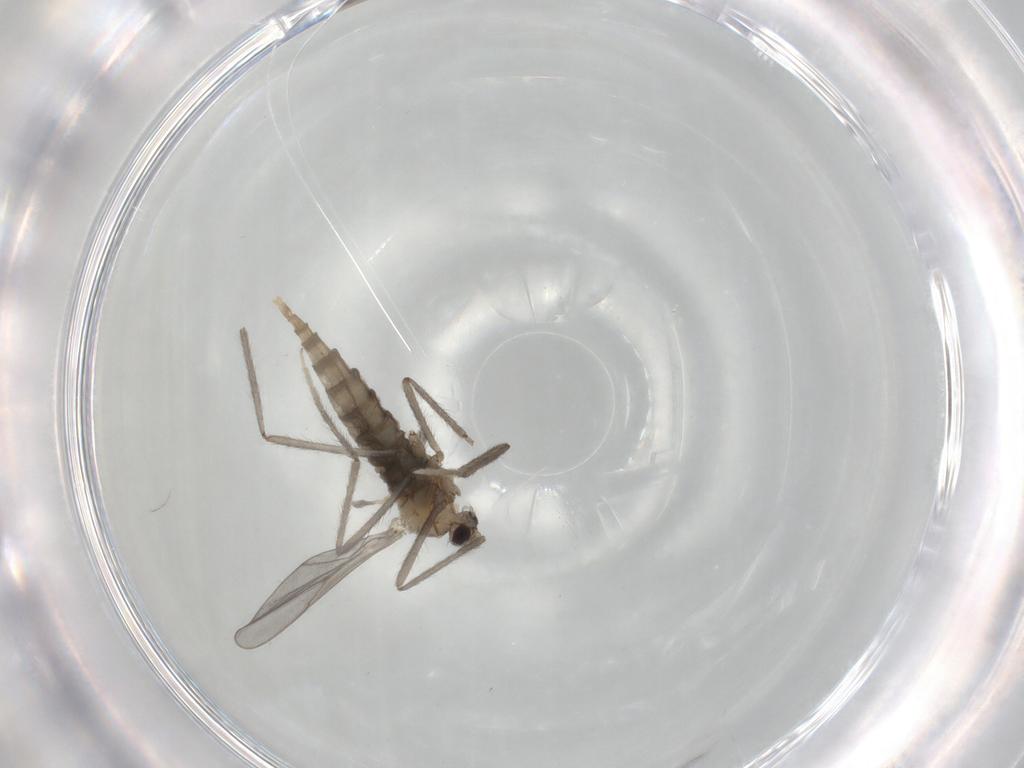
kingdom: Animalia
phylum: Arthropoda
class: Insecta
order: Diptera
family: Cecidomyiidae
